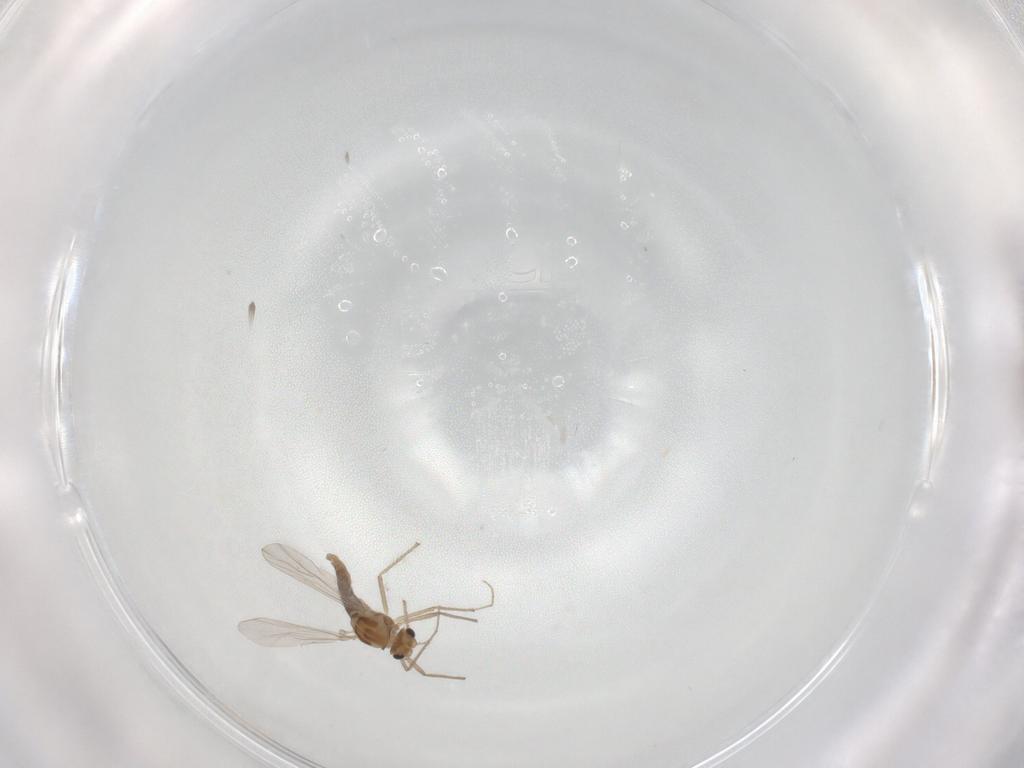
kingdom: Animalia
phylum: Arthropoda
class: Insecta
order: Diptera
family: Chironomidae
